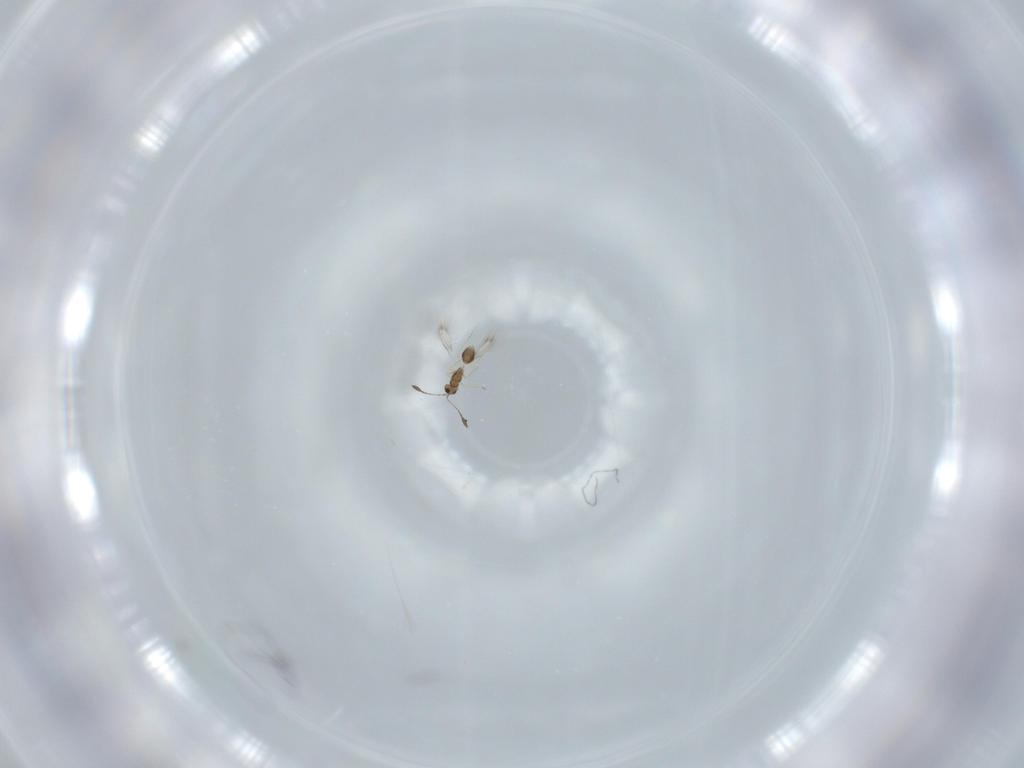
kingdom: Animalia
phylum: Arthropoda
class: Insecta
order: Hymenoptera
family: Mymarommatidae
